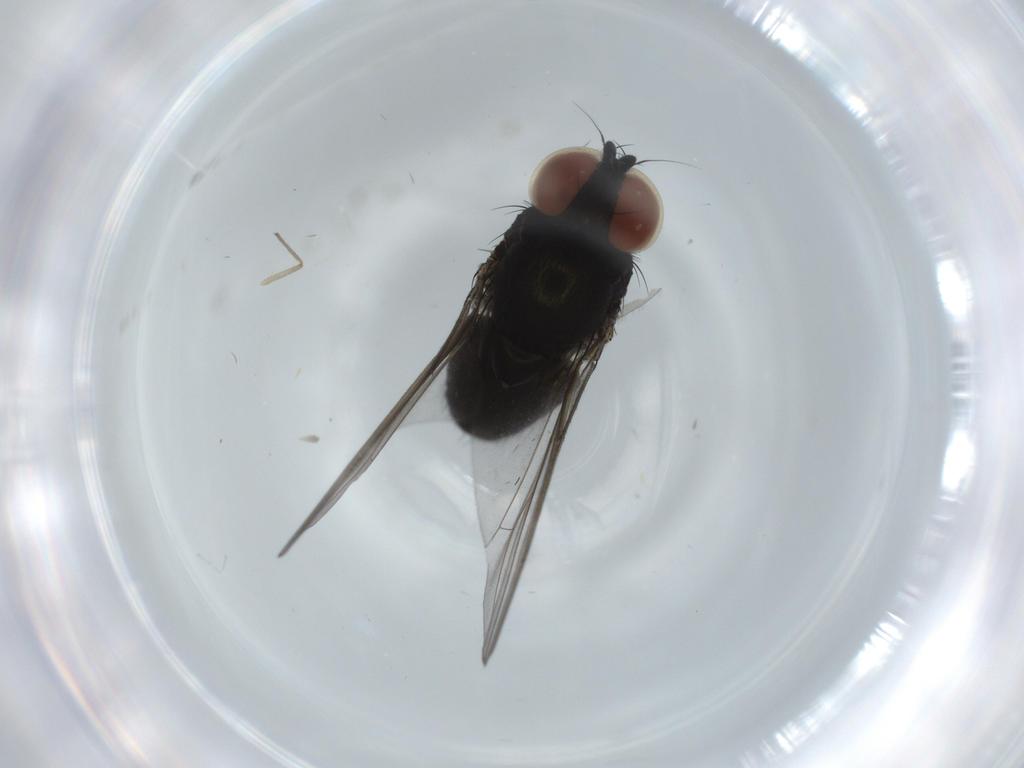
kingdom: Animalia
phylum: Arthropoda
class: Insecta
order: Diptera
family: Milichiidae
